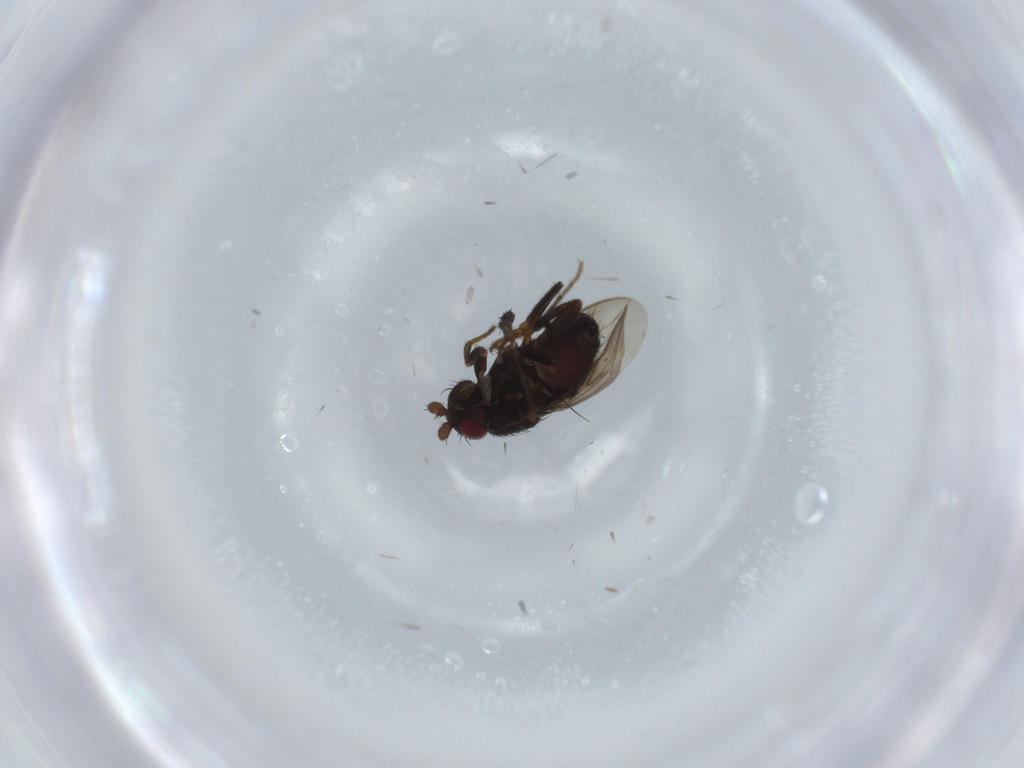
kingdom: Animalia
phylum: Arthropoda
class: Insecta
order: Diptera
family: Sphaeroceridae
